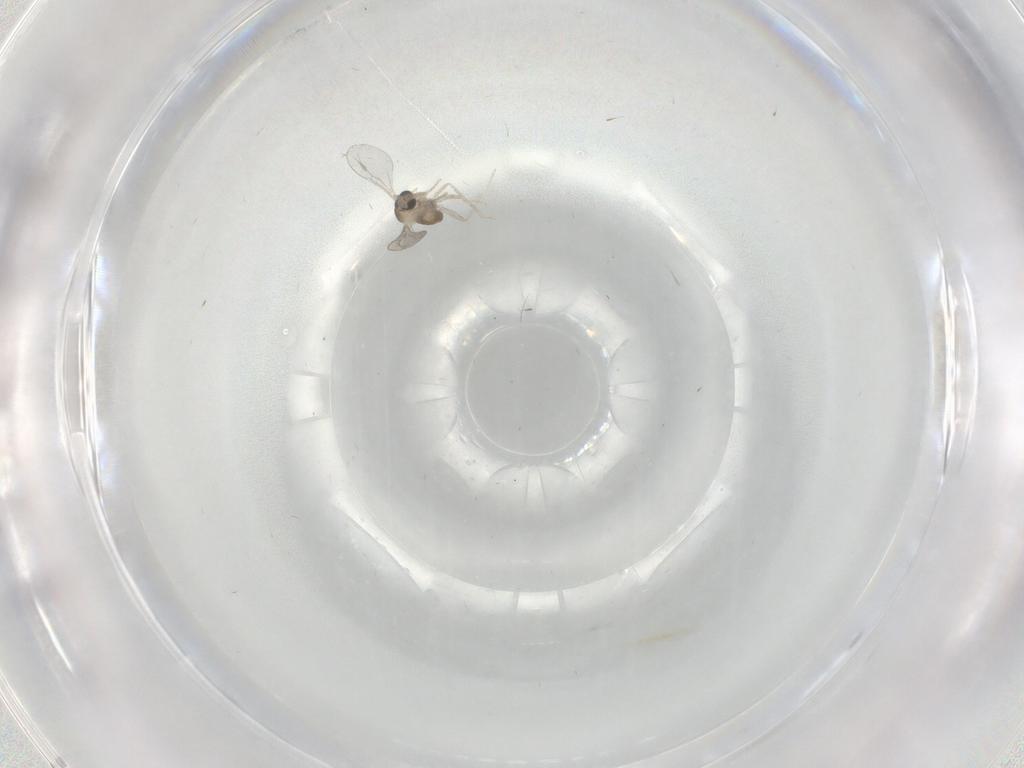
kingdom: Animalia
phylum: Arthropoda
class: Insecta
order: Diptera
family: Cecidomyiidae
